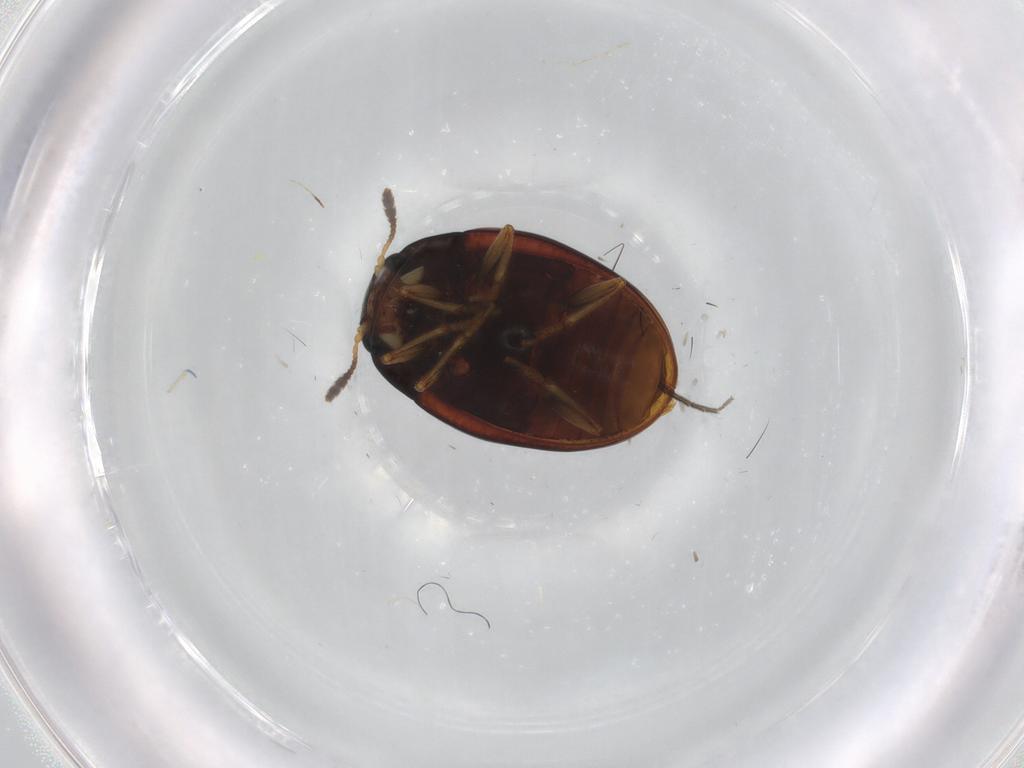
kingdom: Animalia
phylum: Arthropoda
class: Insecta
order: Coleoptera
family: Erotylidae
